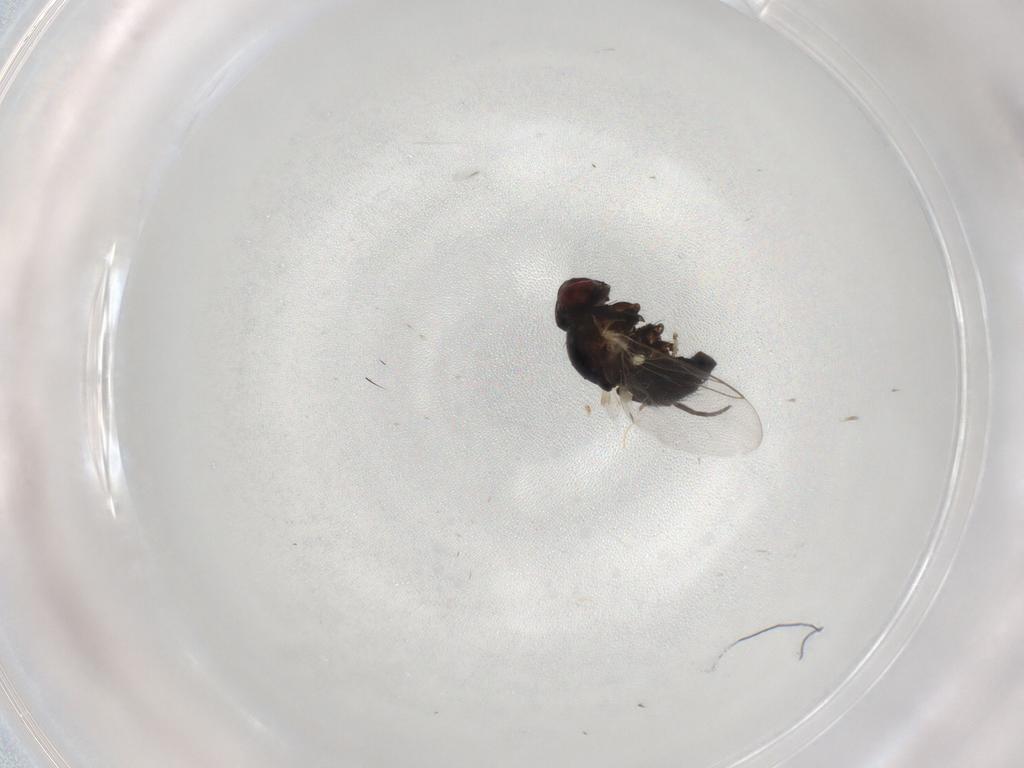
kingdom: Animalia
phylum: Arthropoda
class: Insecta
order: Diptera
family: Agromyzidae
